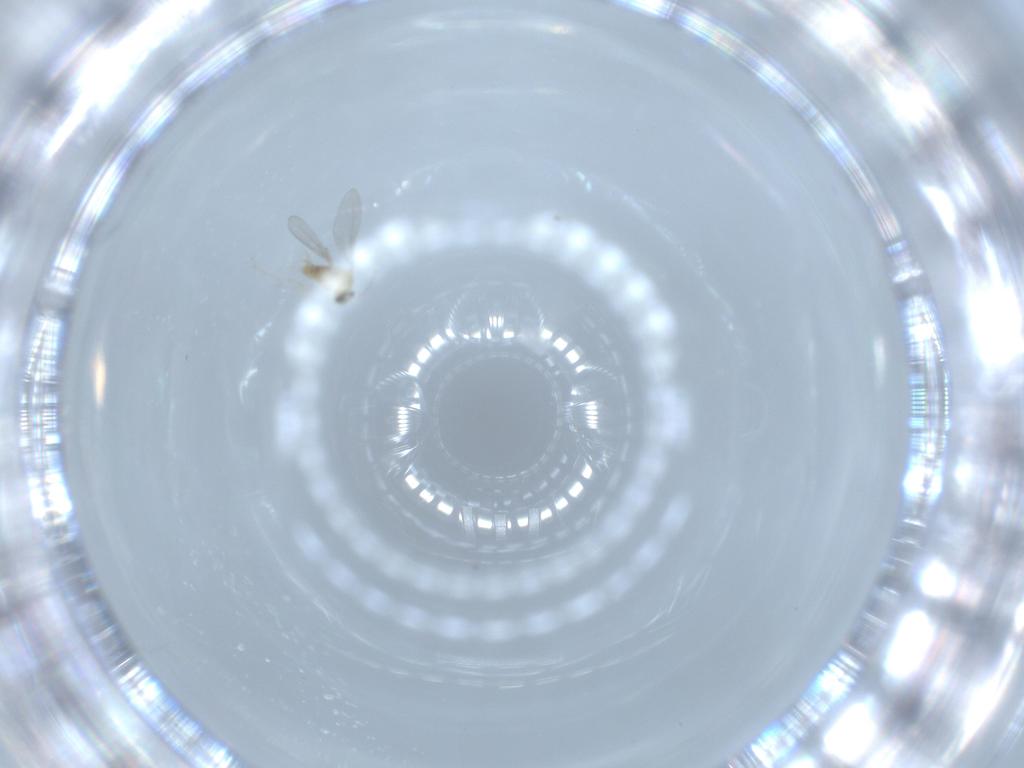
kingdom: Animalia
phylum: Arthropoda
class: Insecta
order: Diptera
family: Cecidomyiidae
